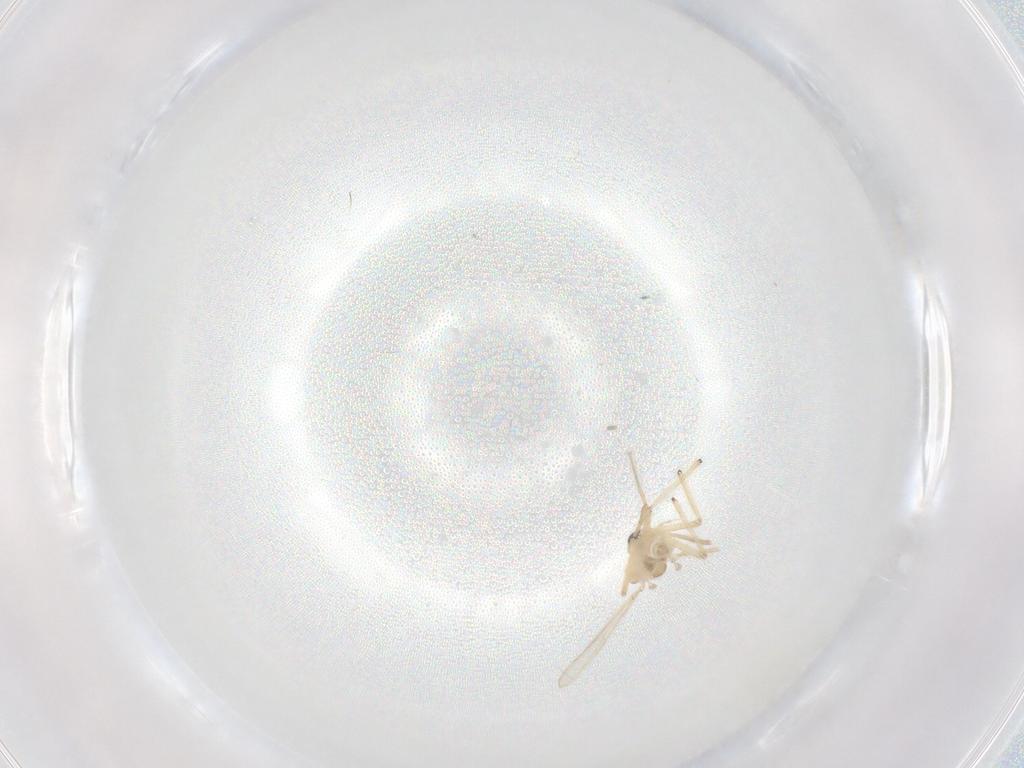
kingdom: Animalia
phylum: Arthropoda
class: Insecta
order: Diptera
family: Chironomidae
